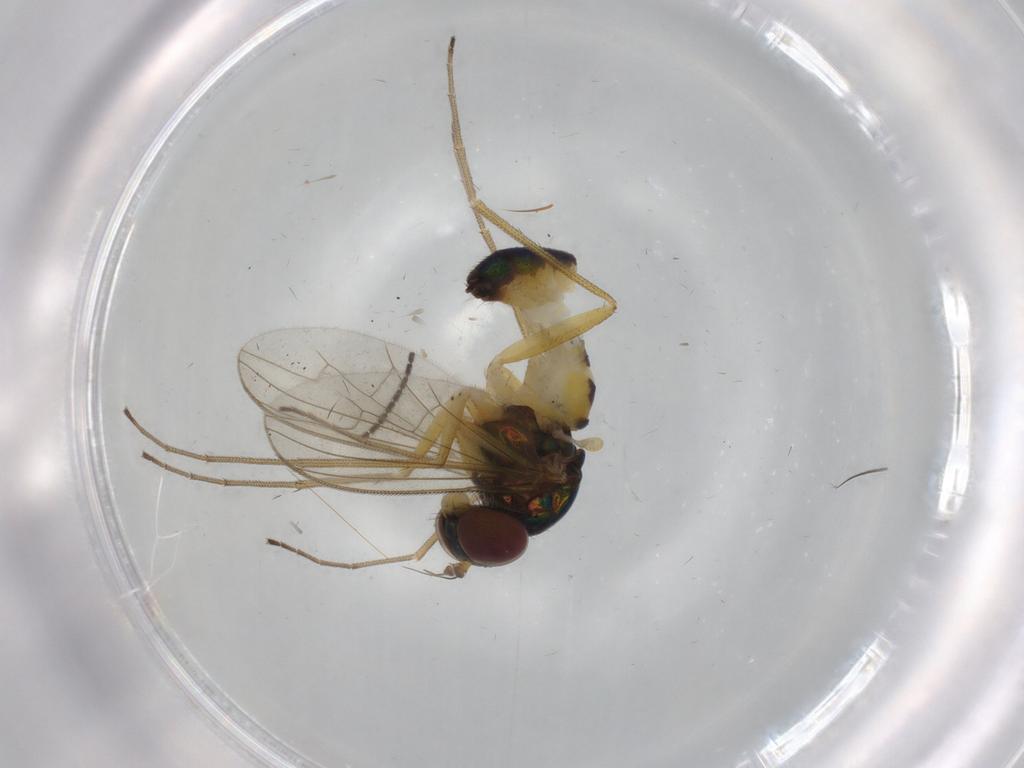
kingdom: Animalia
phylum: Arthropoda
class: Insecta
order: Diptera
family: Dolichopodidae
